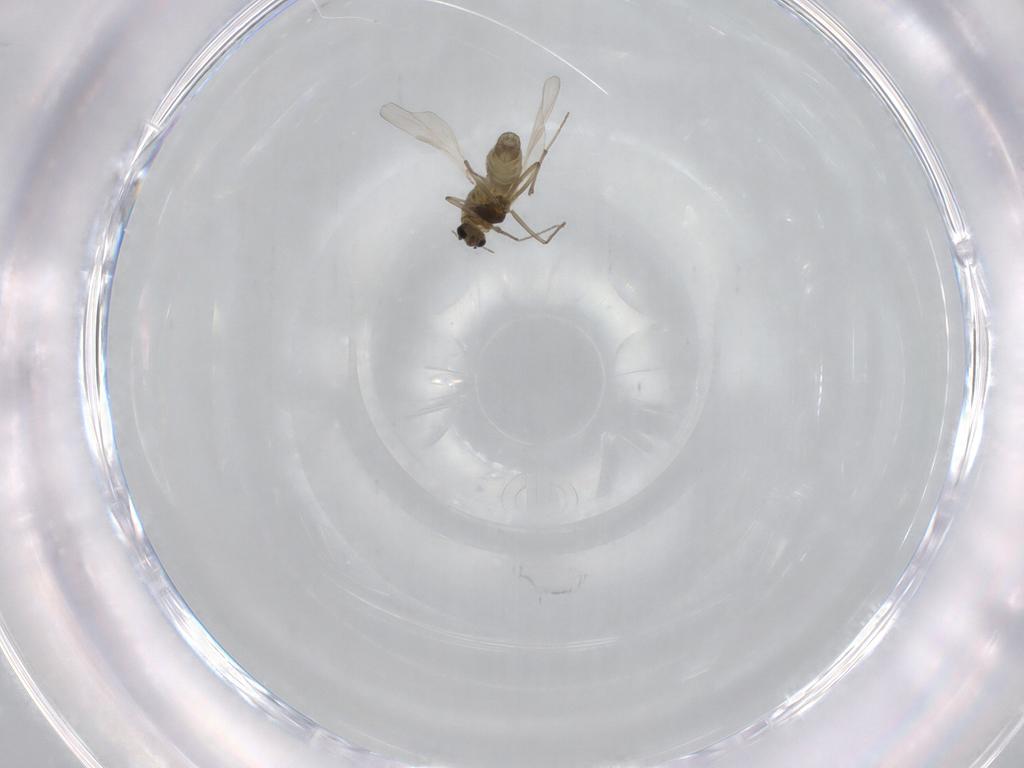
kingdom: Animalia
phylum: Arthropoda
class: Insecta
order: Diptera
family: Chironomidae
